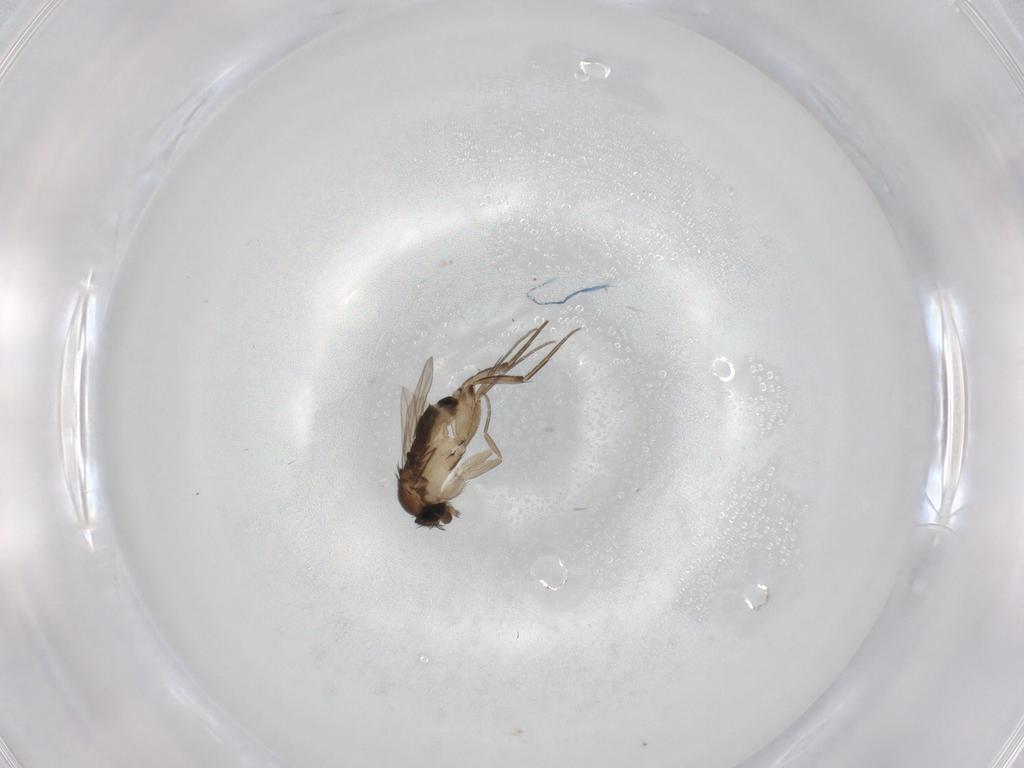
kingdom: Animalia
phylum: Arthropoda
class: Insecta
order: Diptera
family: Phoridae
